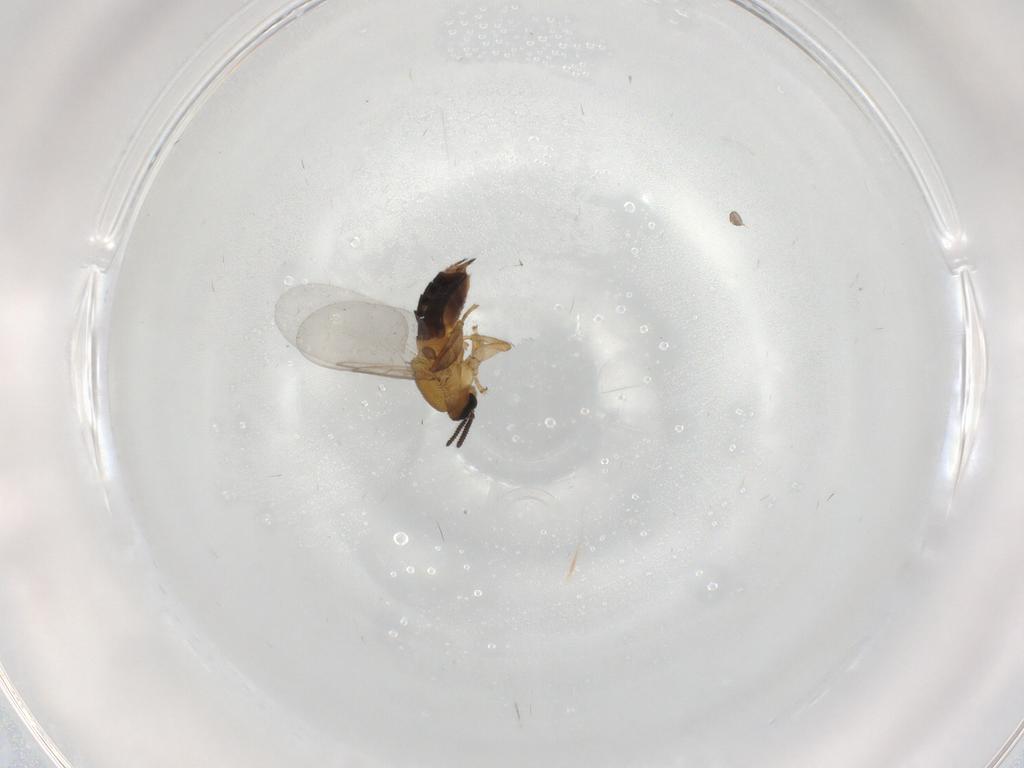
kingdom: Animalia
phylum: Arthropoda
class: Insecta
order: Diptera
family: Scatopsidae
